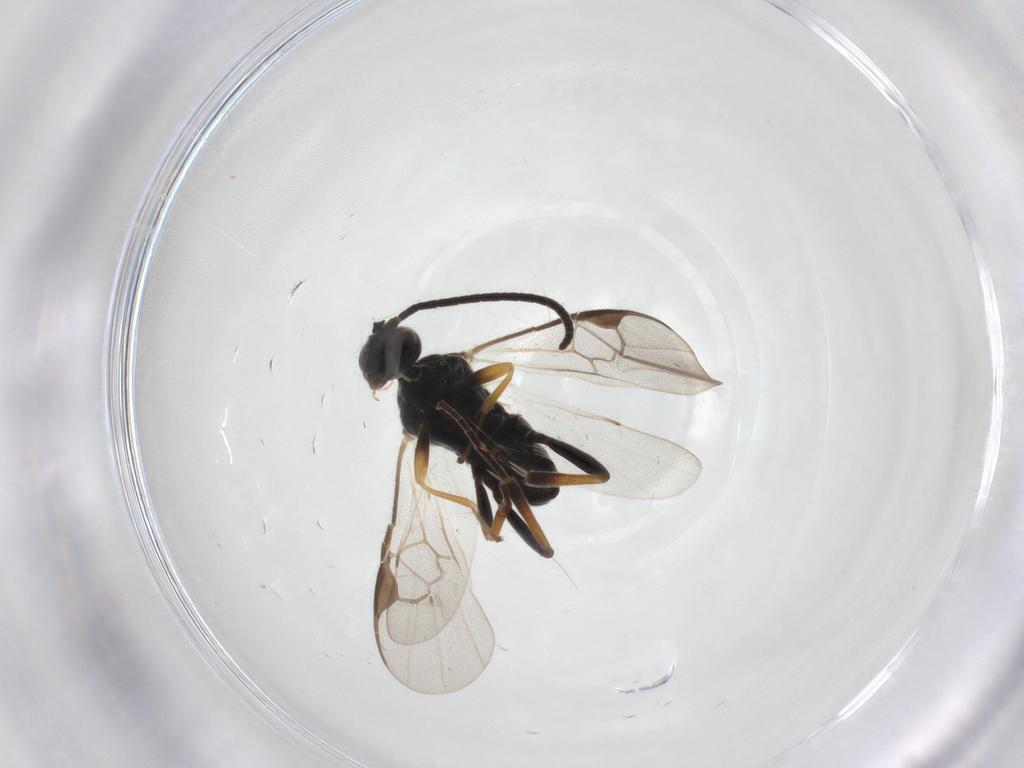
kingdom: Animalia
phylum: Arthropoda
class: Insecta
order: Hymenoptera
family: Braconidae
